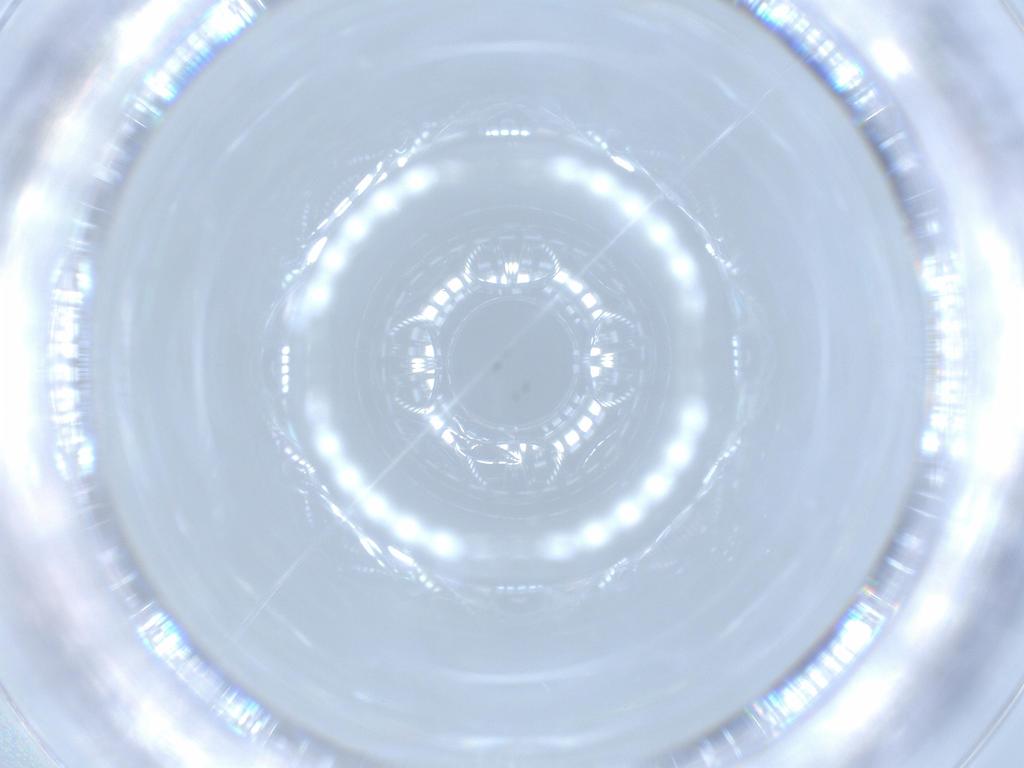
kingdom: Animalia
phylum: Arthropoda
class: Insecta
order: Diptera
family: Chironomidae
